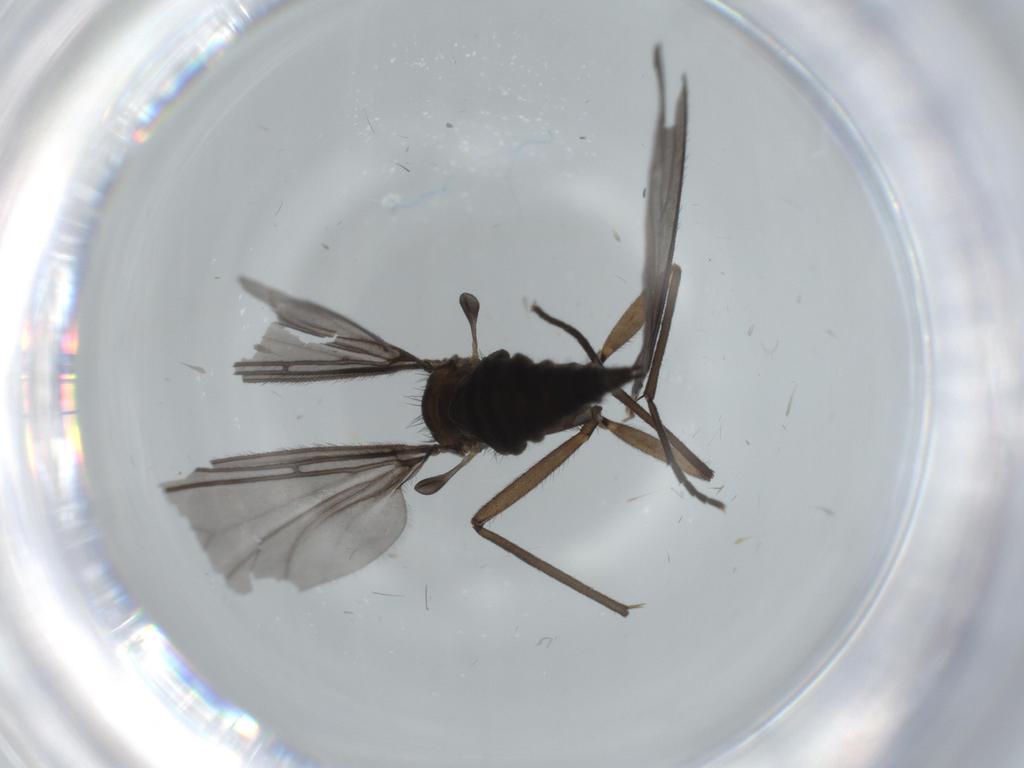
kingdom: Animalia
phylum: Arthropoda
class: Insecta
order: Diptera
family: Sciaridae
